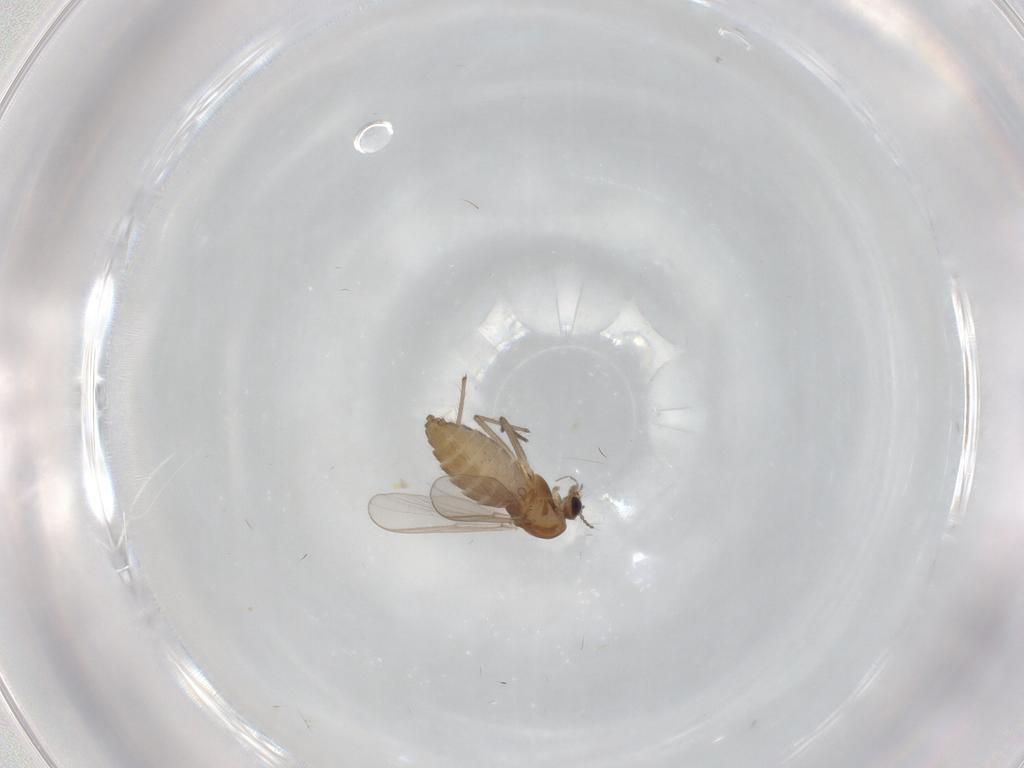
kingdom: Animalia
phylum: Arthropoda
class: Insecta
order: Diptera
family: Chironomidae
